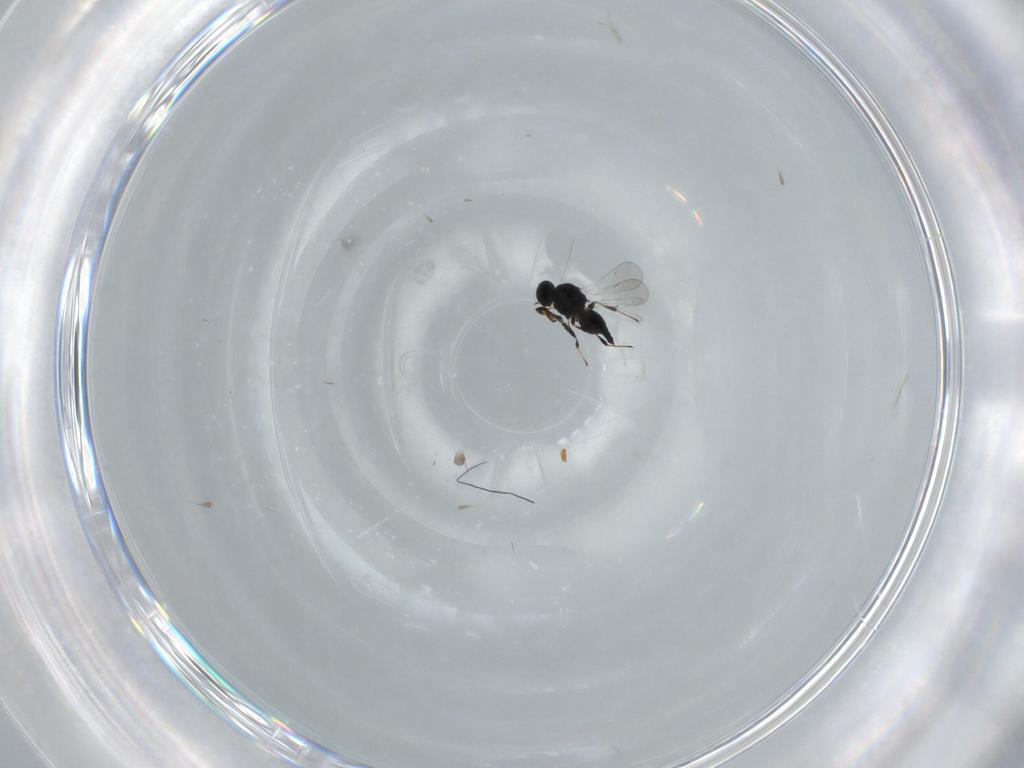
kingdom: Animalia
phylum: Arthropoda
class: Insecta
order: Hymenoptera
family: Platygastridae
